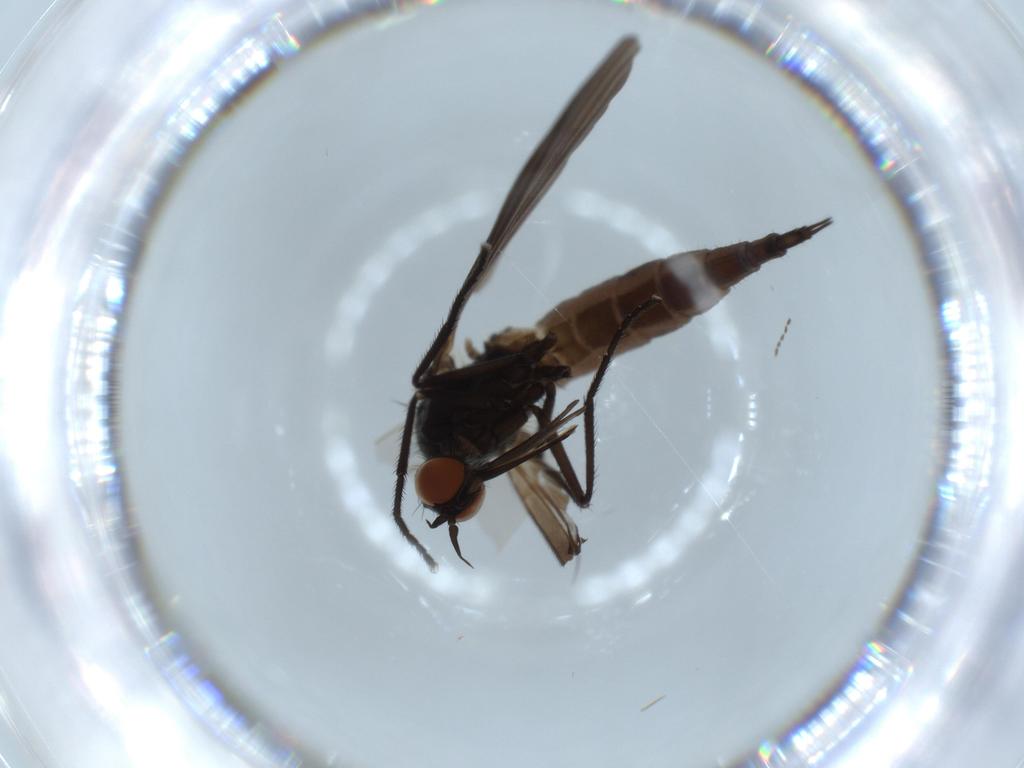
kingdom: Animalia
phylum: Arthropoda
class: Insecta
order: Diptera
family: Empididae
